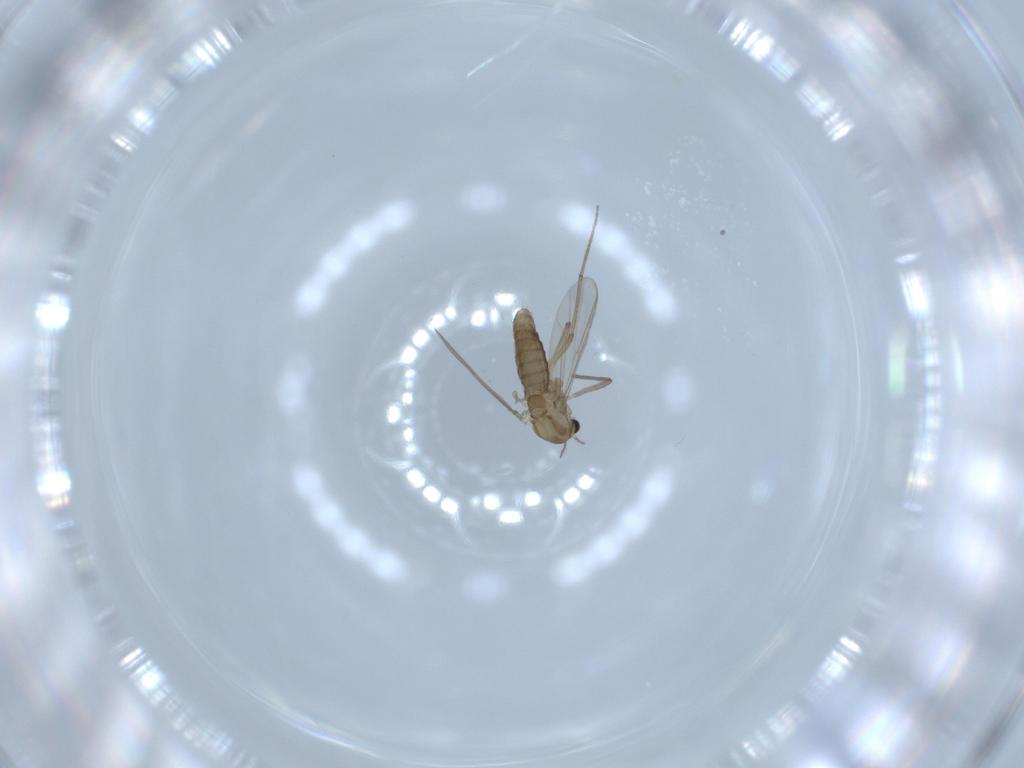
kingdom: Animalia
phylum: Arthropoda
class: Insecta
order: Diptera
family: Chironomidae
